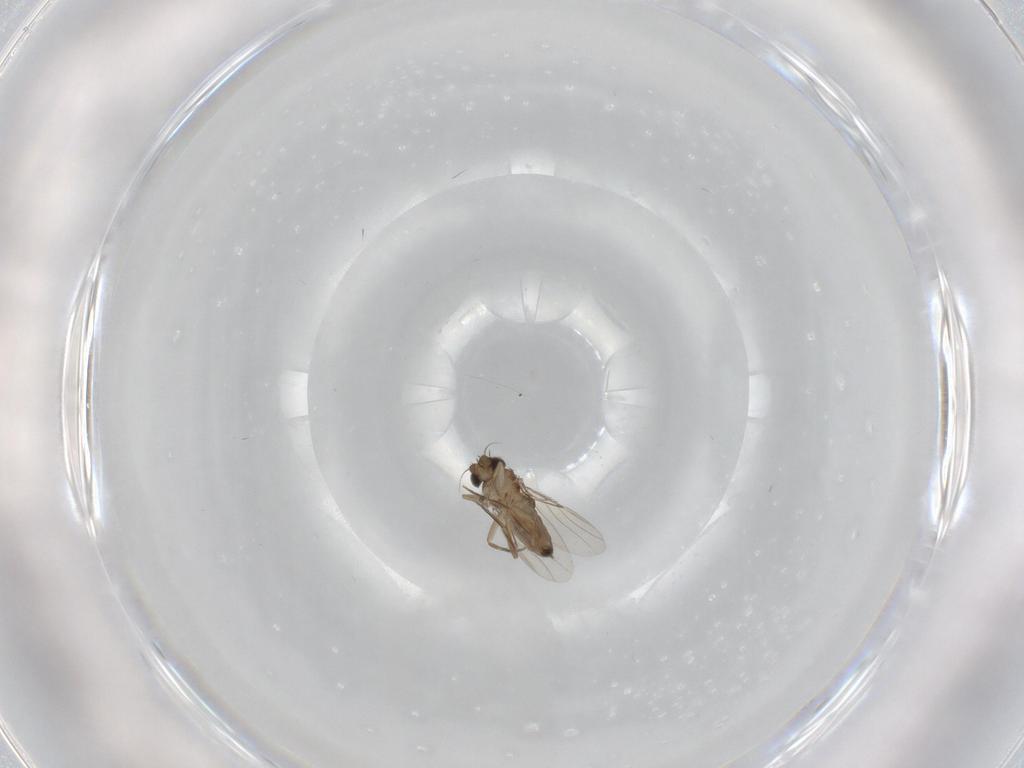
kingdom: Animalia
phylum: Arthropoda
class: Insecta
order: Diptera
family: Phoridae
